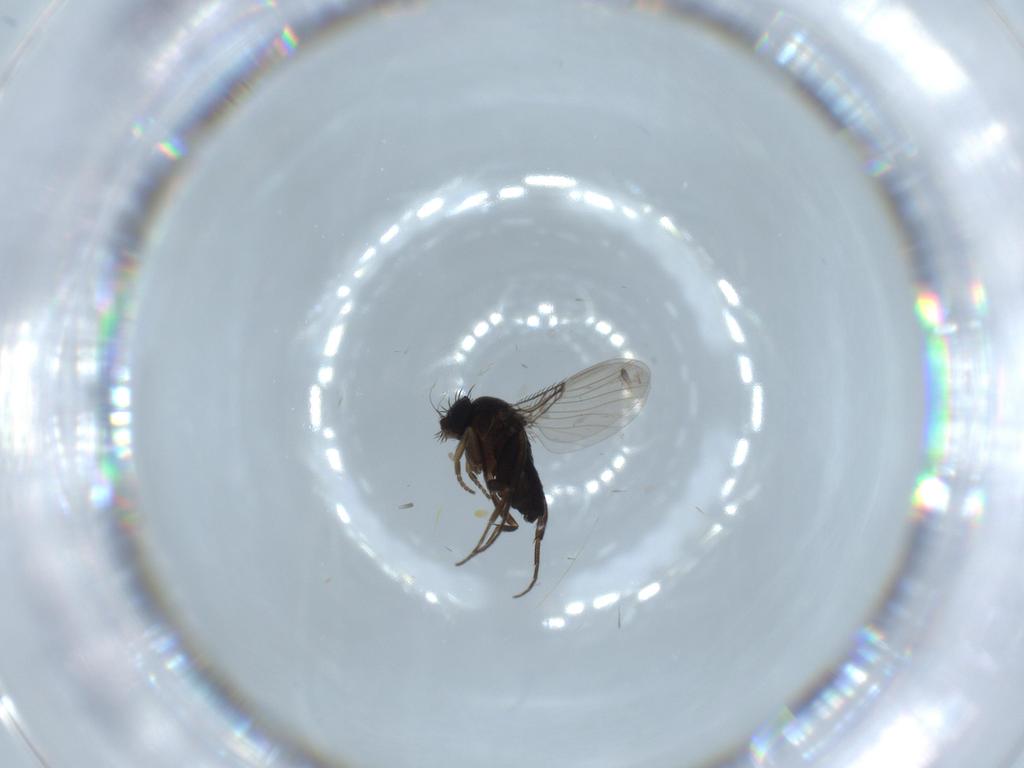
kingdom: Animalia
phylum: Arthropoda
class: Insecta
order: Diptera
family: Phoridae
